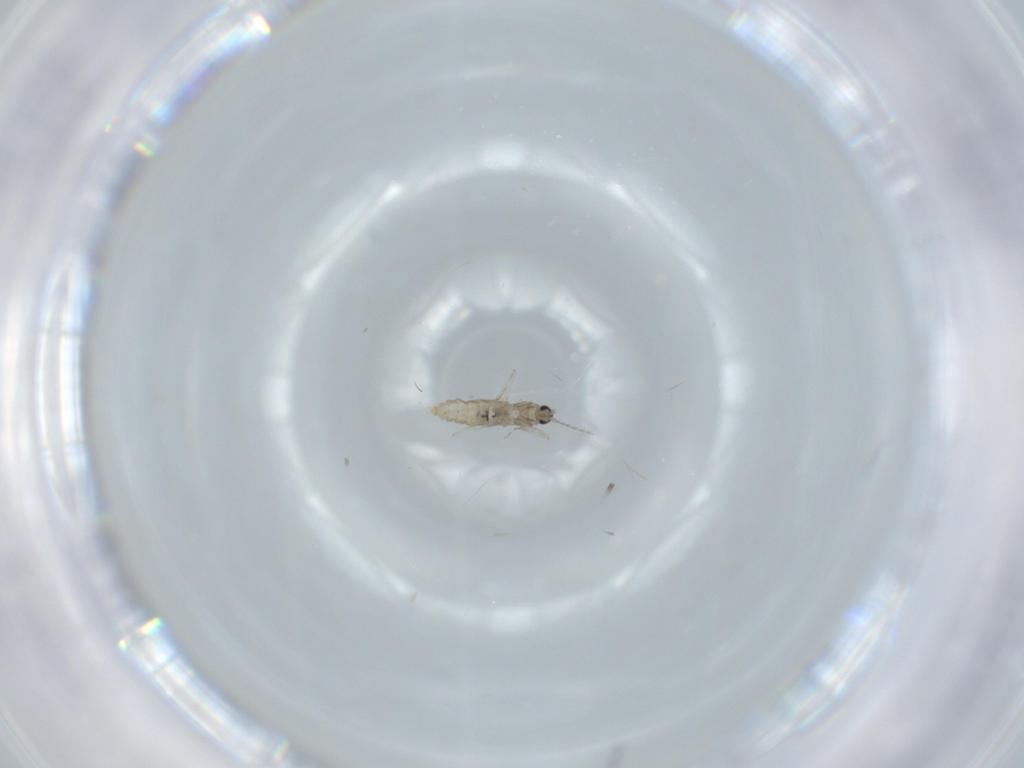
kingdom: Animalia
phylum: Arthropoda
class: Insecta
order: Diptera
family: Cecidomyiidae
